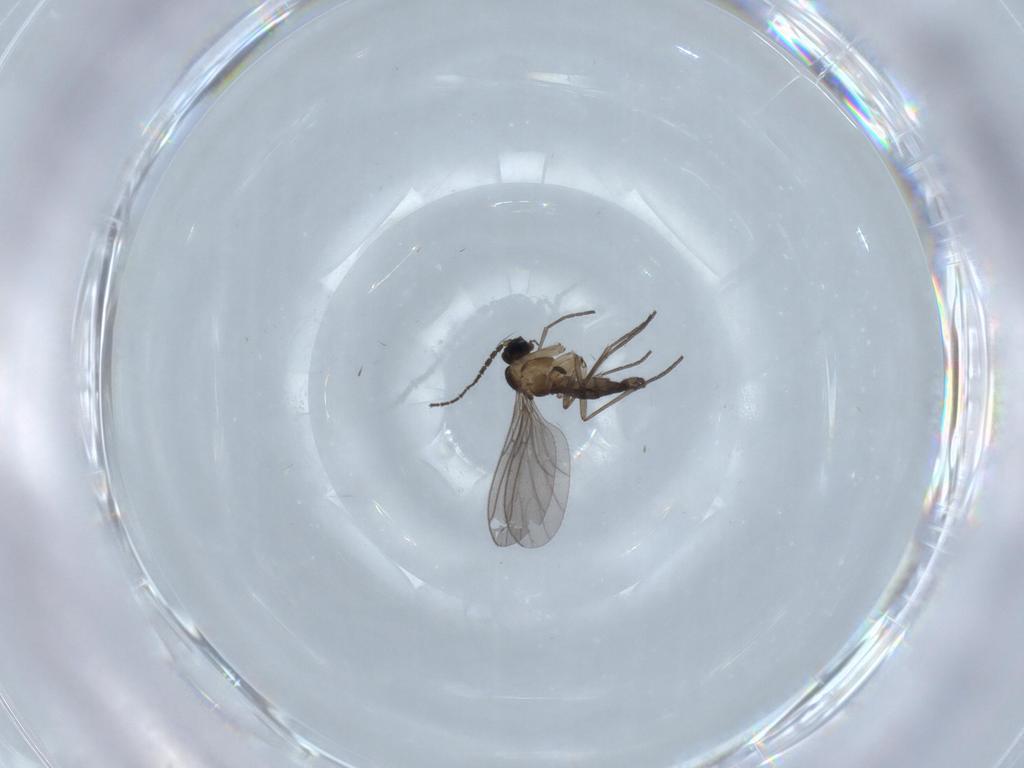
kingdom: Animalia
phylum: Arthropoda
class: Insecta
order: Diptera
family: Sciaridae
